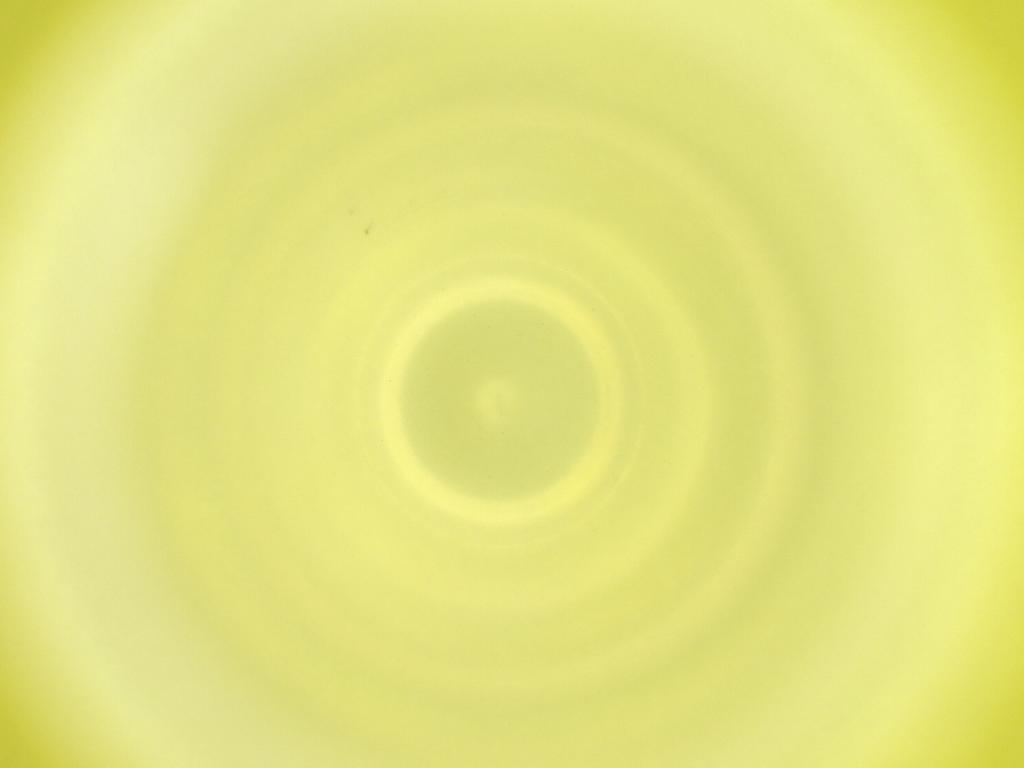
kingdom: Animalia
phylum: Arthropoda
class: Insecta
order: Diptera
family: Cecidomyiidae
